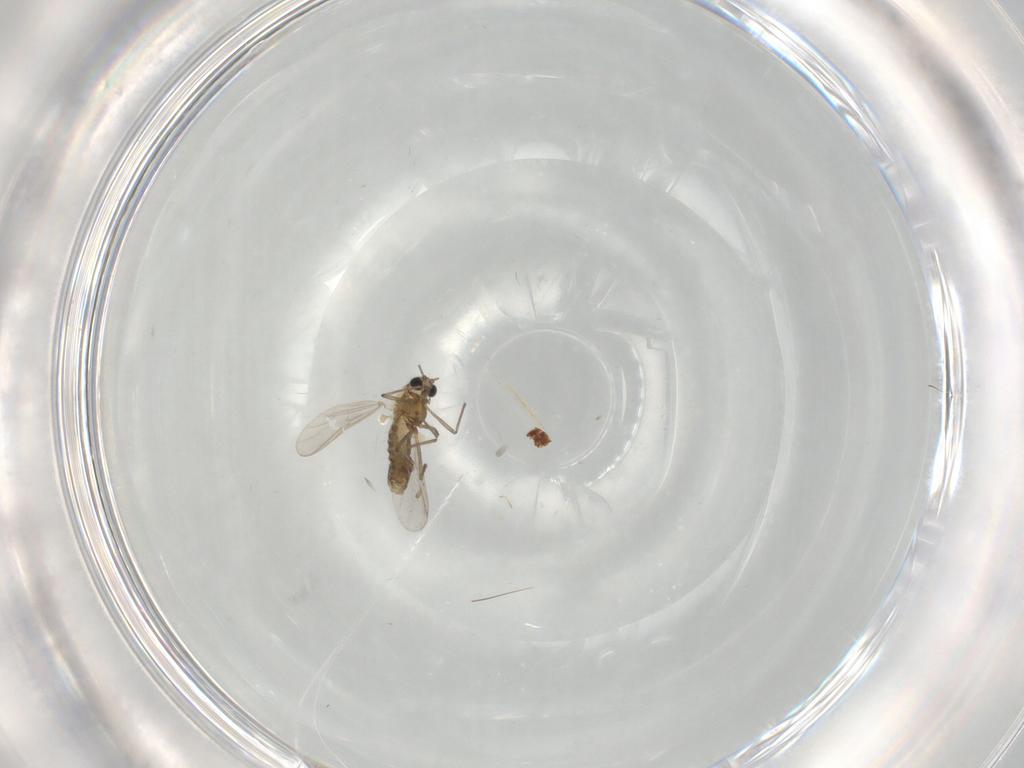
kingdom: Animalia
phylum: Arthropoda
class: Insecta
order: Diptera
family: Chironomidae
